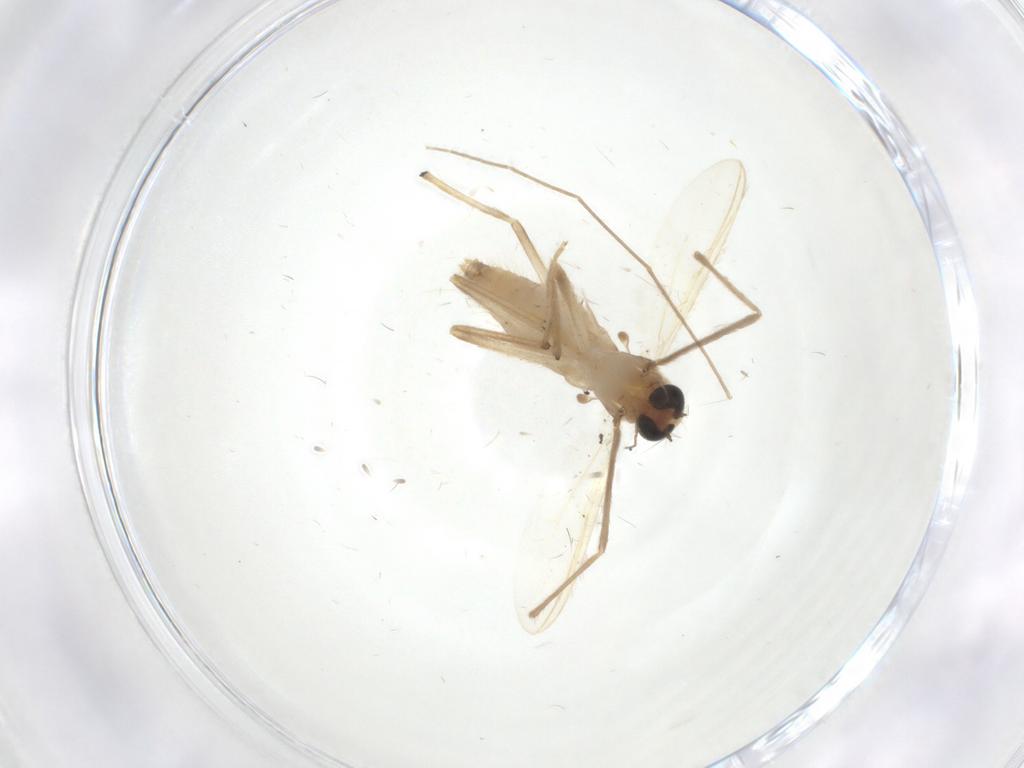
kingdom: Animalia
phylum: Arthropoda
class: Insecta
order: Diptera
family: Chironomidae
